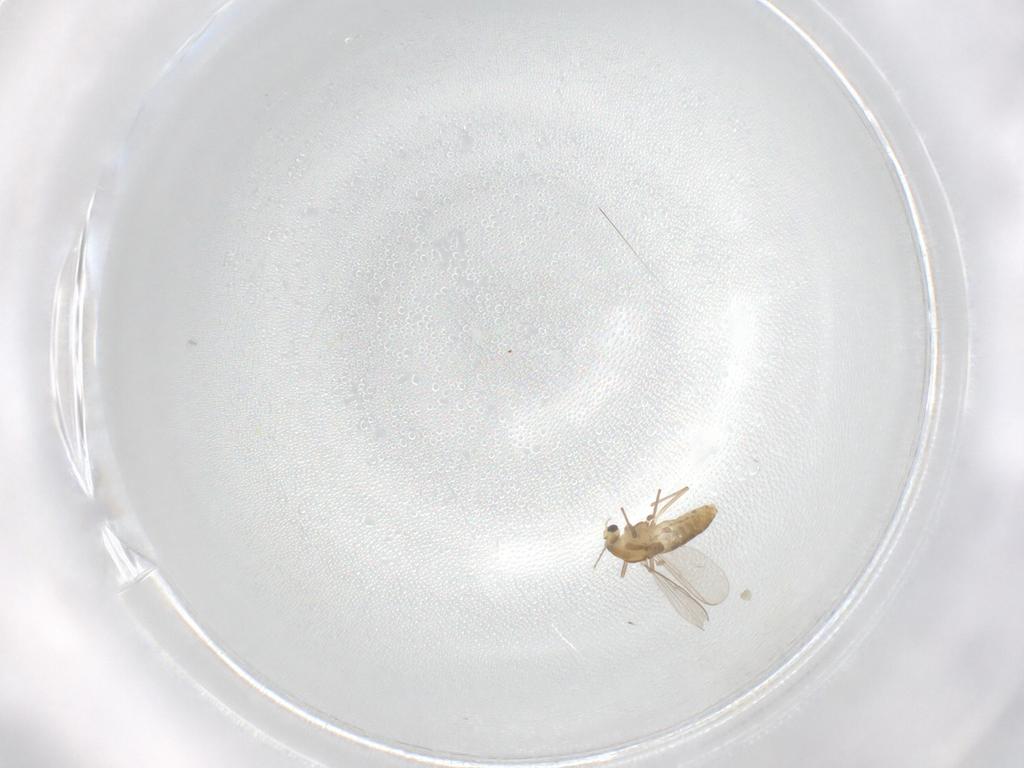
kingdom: Animalia
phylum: Arthropoda
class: Insecta
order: Diptera
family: Chironomidae
